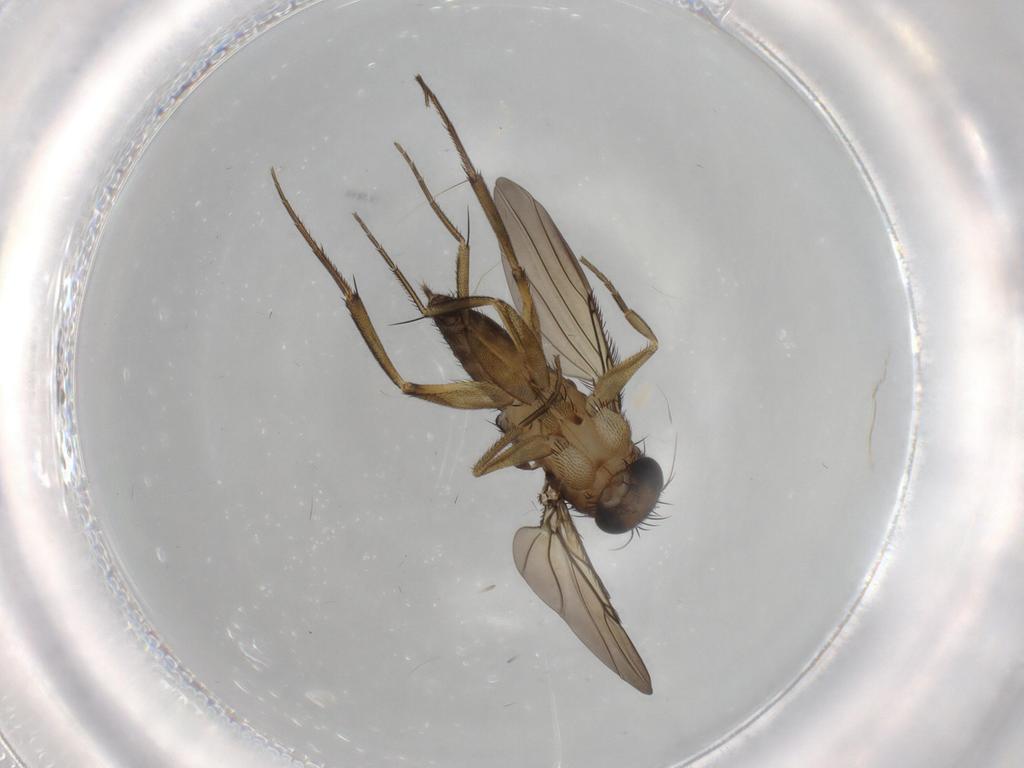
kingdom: Animalia
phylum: Arthropoda
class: Insecta
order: Diptera
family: Phoridae
